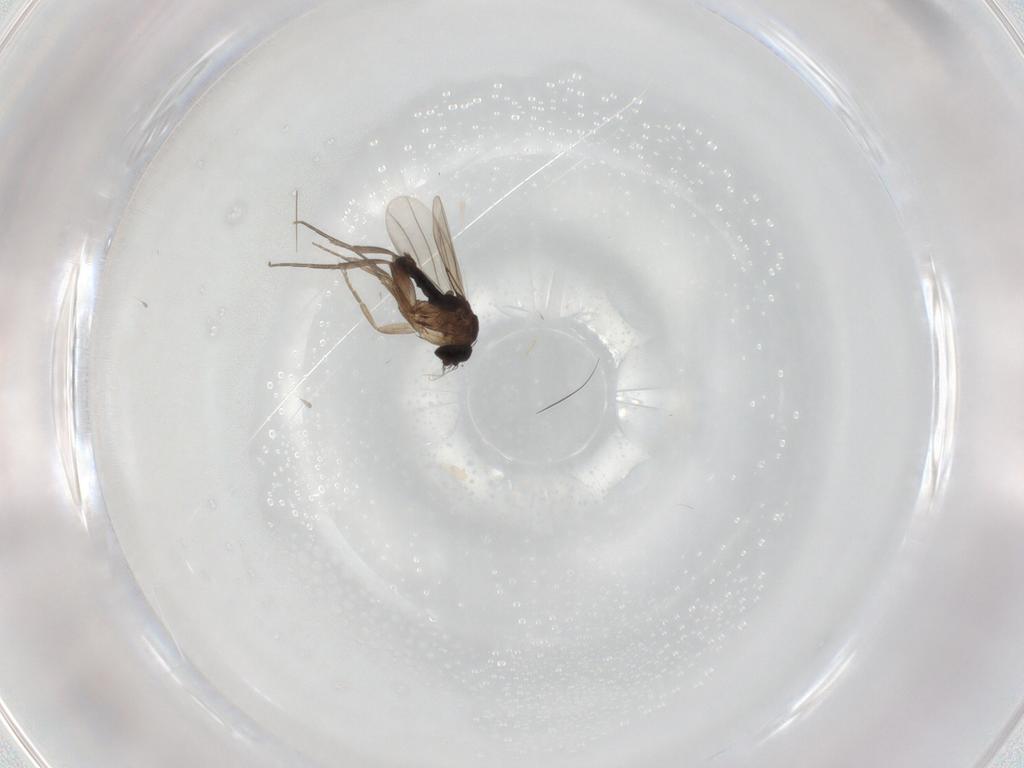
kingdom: Animalia
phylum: Arthropoda
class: Insecta
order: Diptera
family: Phoridae
